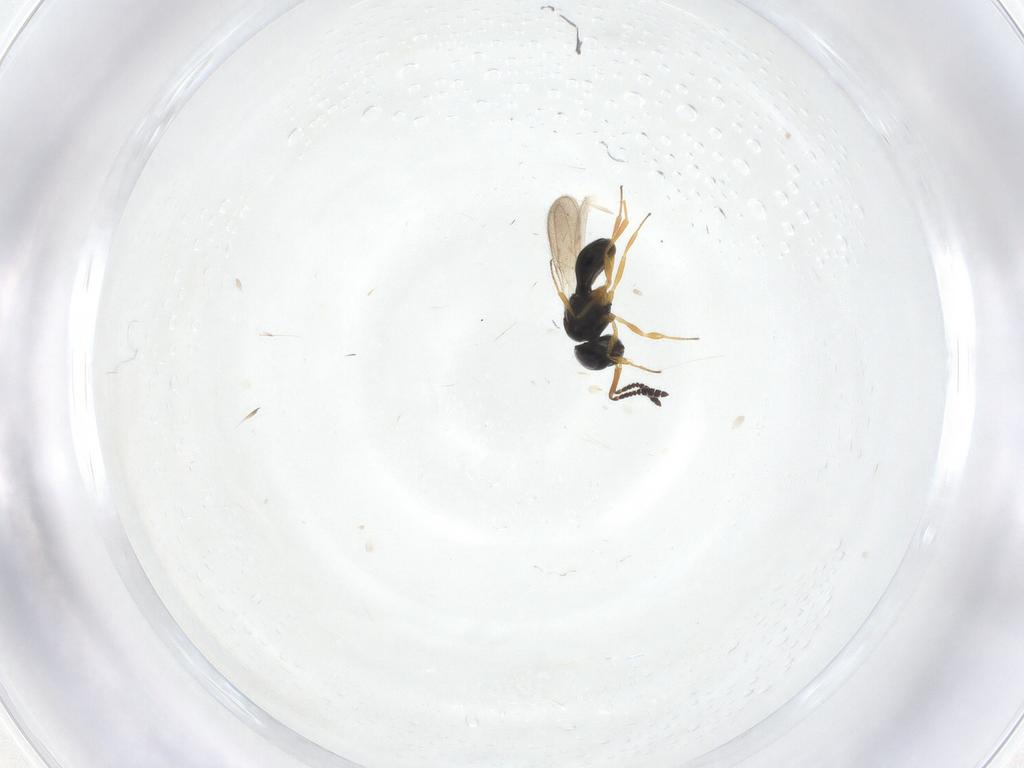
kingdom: Animalia
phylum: Arthropoda
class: Insecta
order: Hymenoptera
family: Scelionidae
